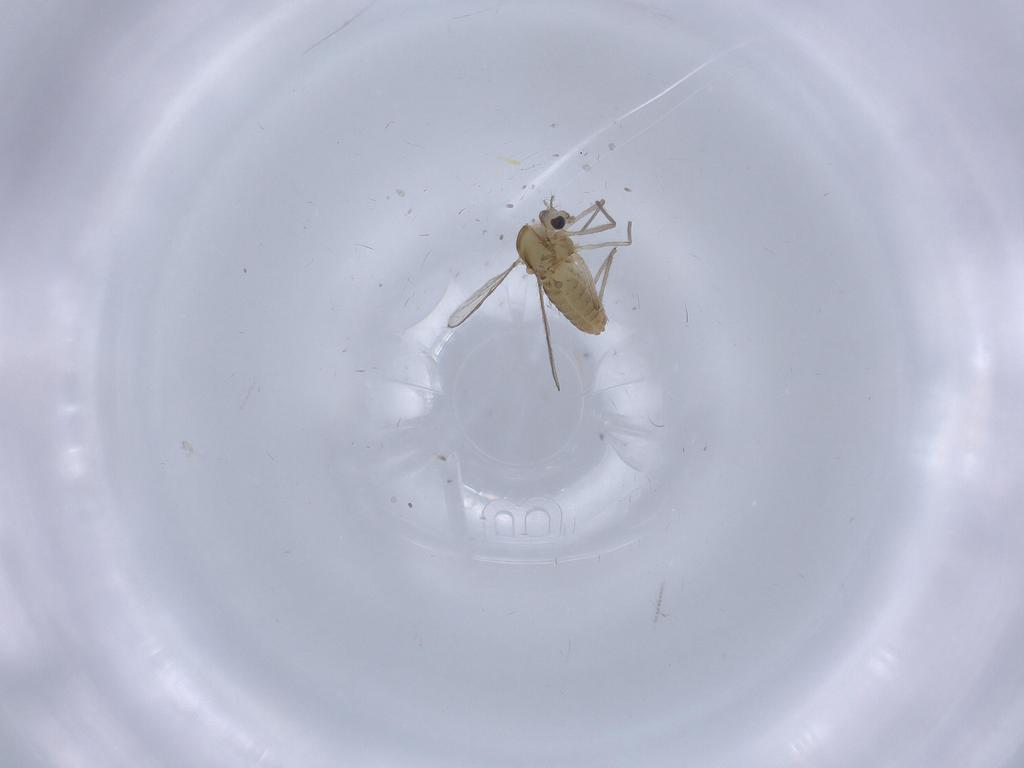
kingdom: Animalia
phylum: Arthropoda
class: Insecta
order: Diptera
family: Chironomidae
